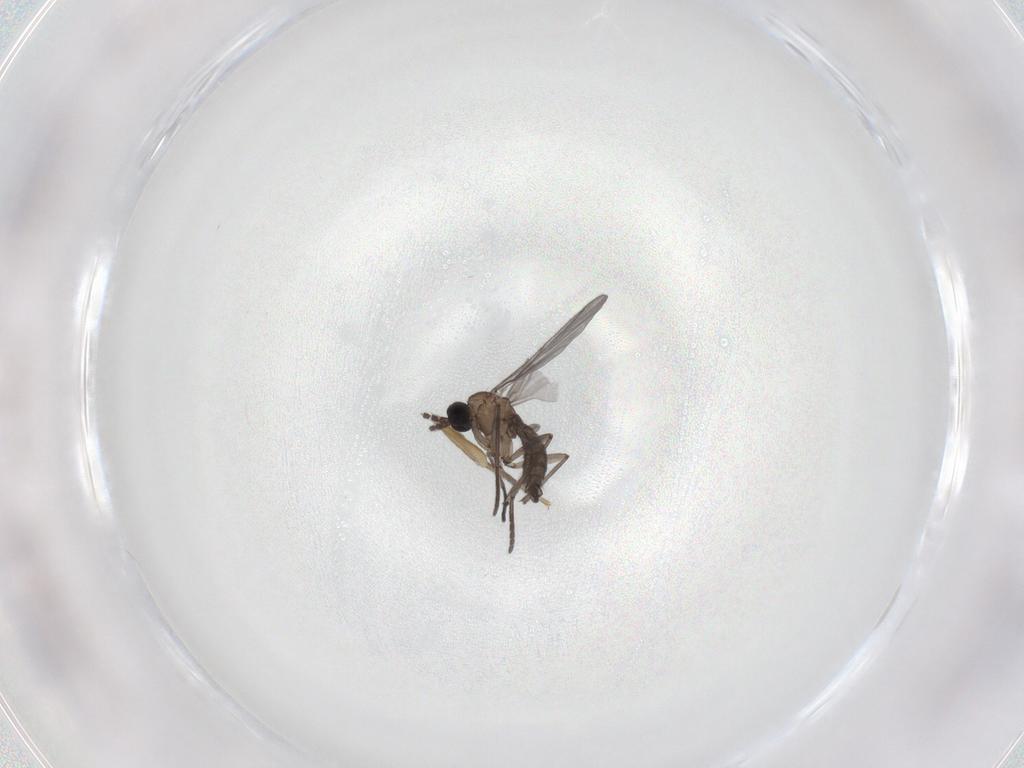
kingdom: Animalia
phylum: Arthropoda
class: Insecta
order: Diptera
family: Phoridae
